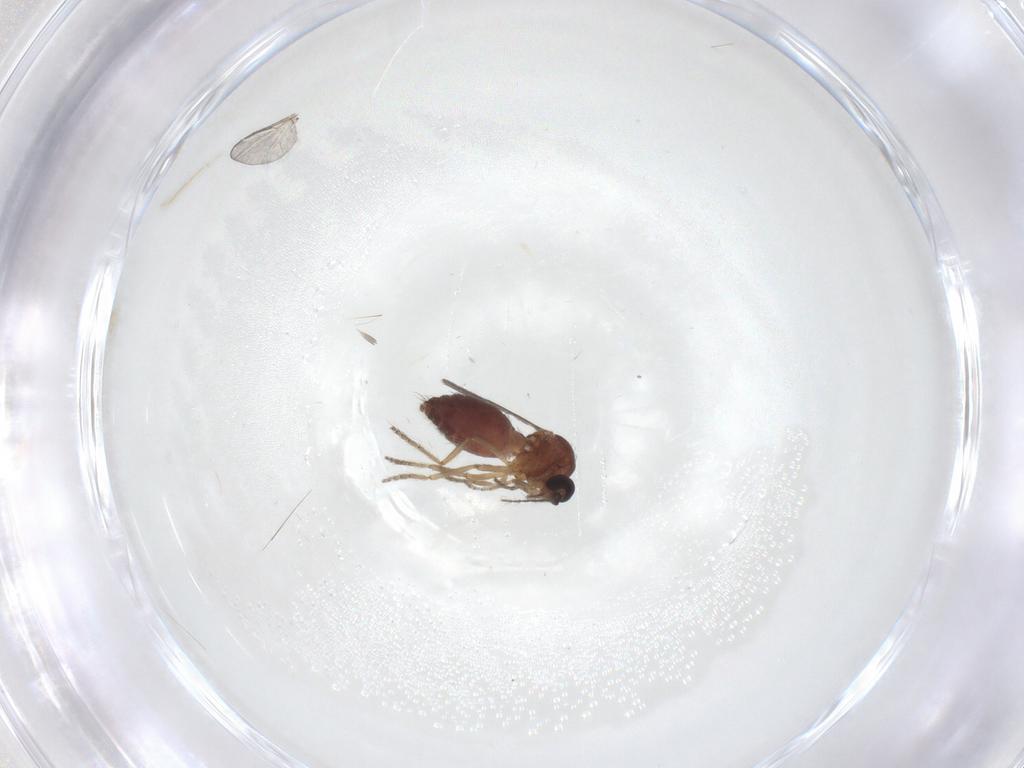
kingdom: Animalia
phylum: Arthropoda
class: Insecta
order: Diptera
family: Ceratopogonidae
